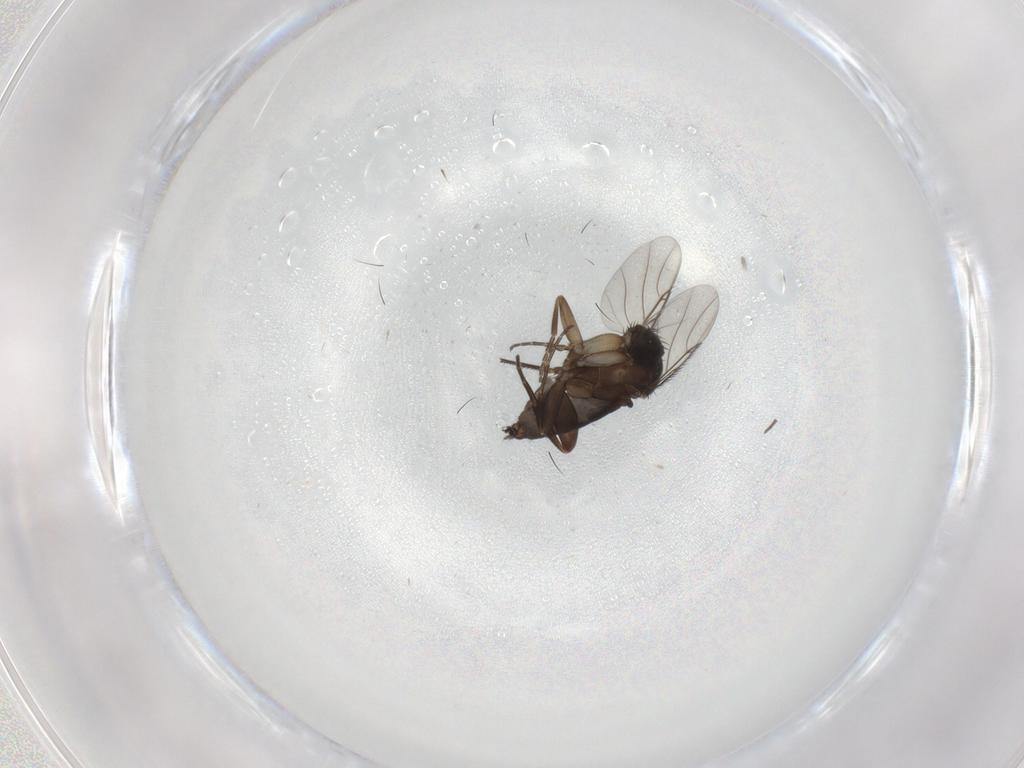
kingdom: Animalia
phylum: Arthropoda
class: Insecta
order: Diptera
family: Phoridae
